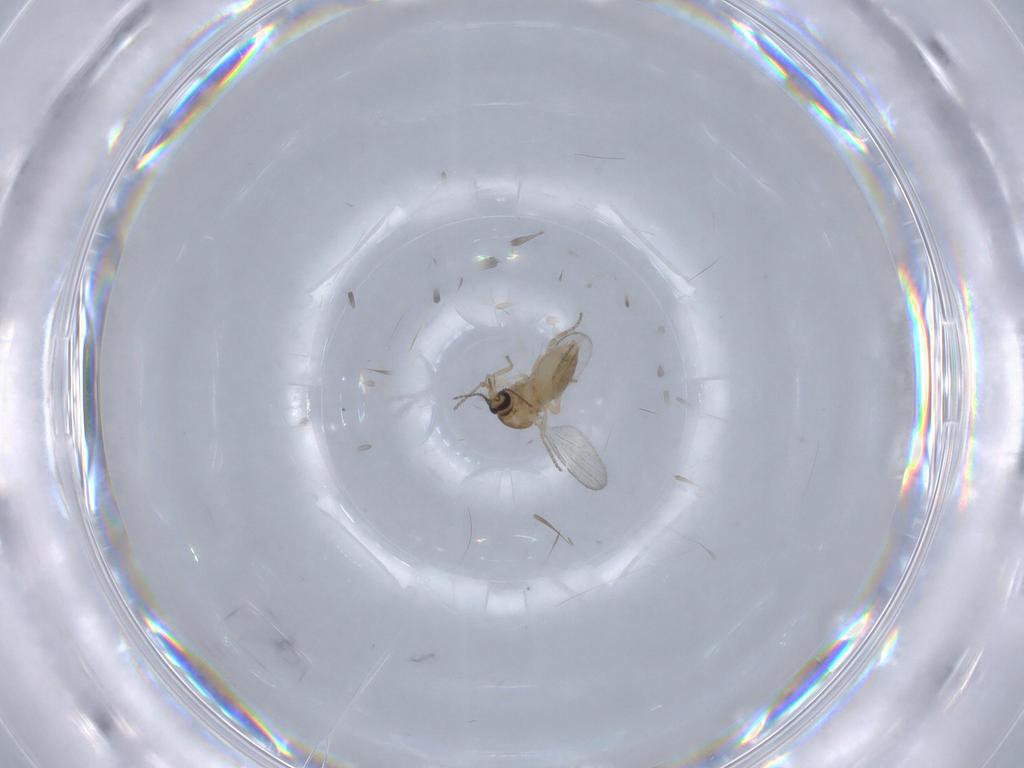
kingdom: Animalia
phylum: Arthropoda
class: Insecta
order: Diptera
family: Ceratopogonidae
